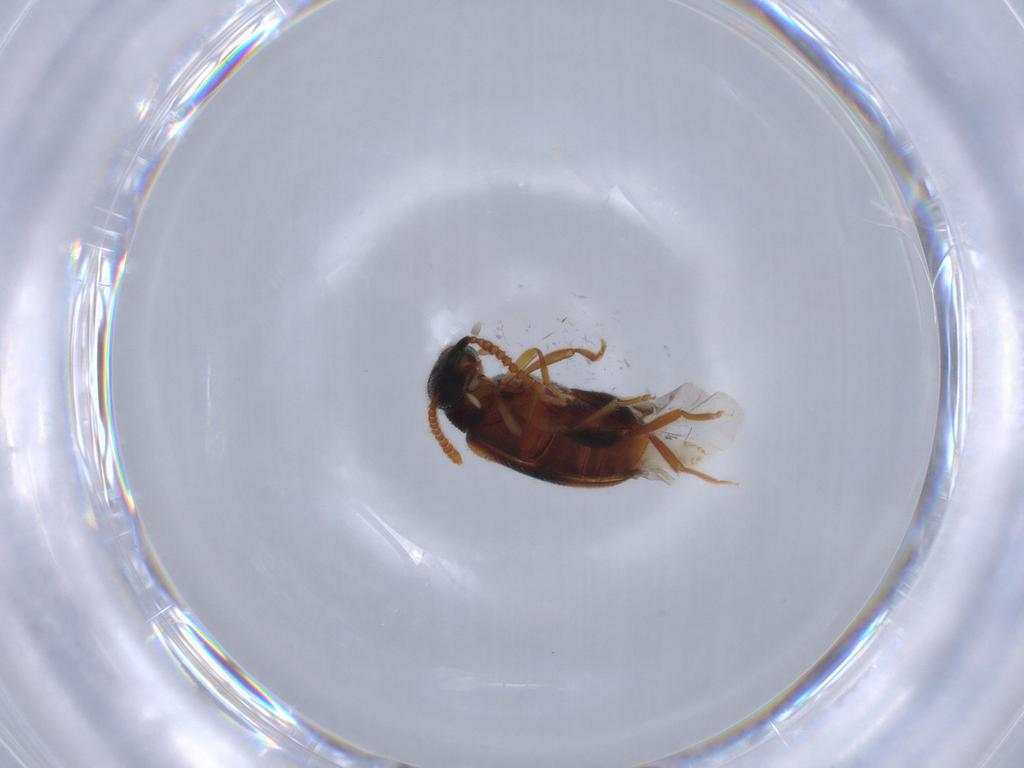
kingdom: Animalia
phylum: Arthropoda
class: Insecta
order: Coleoptera
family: Aderidae
